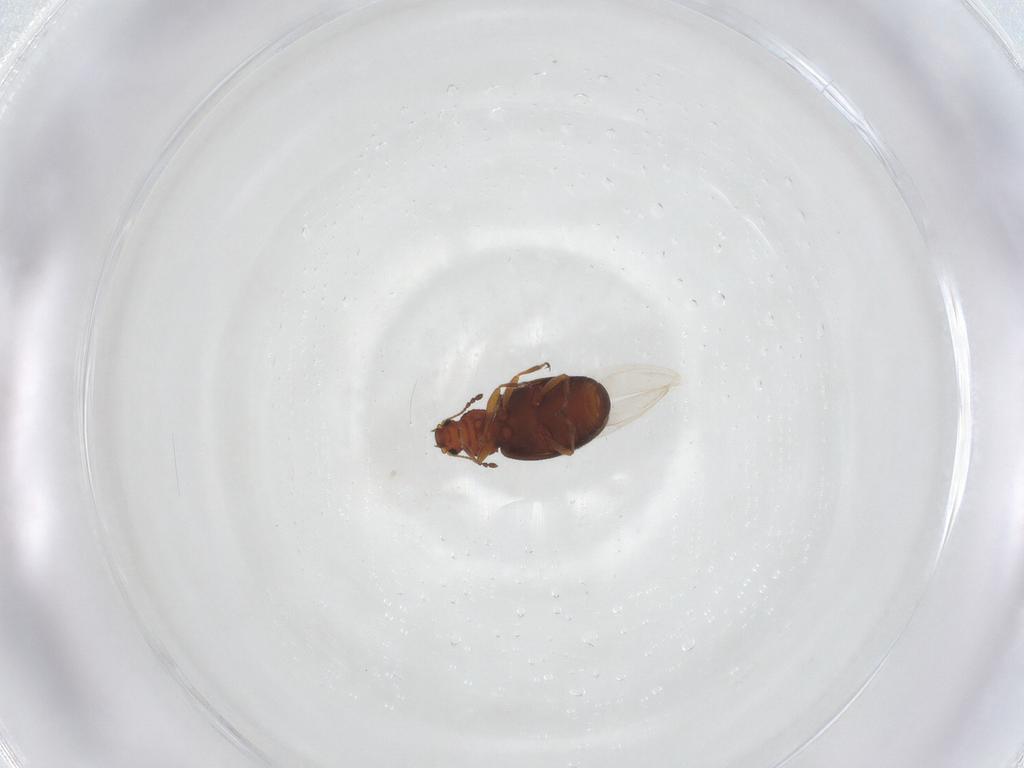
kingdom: Animalia
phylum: Arthropoda
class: Insecta
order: Coleoptera
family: Latridiidae
